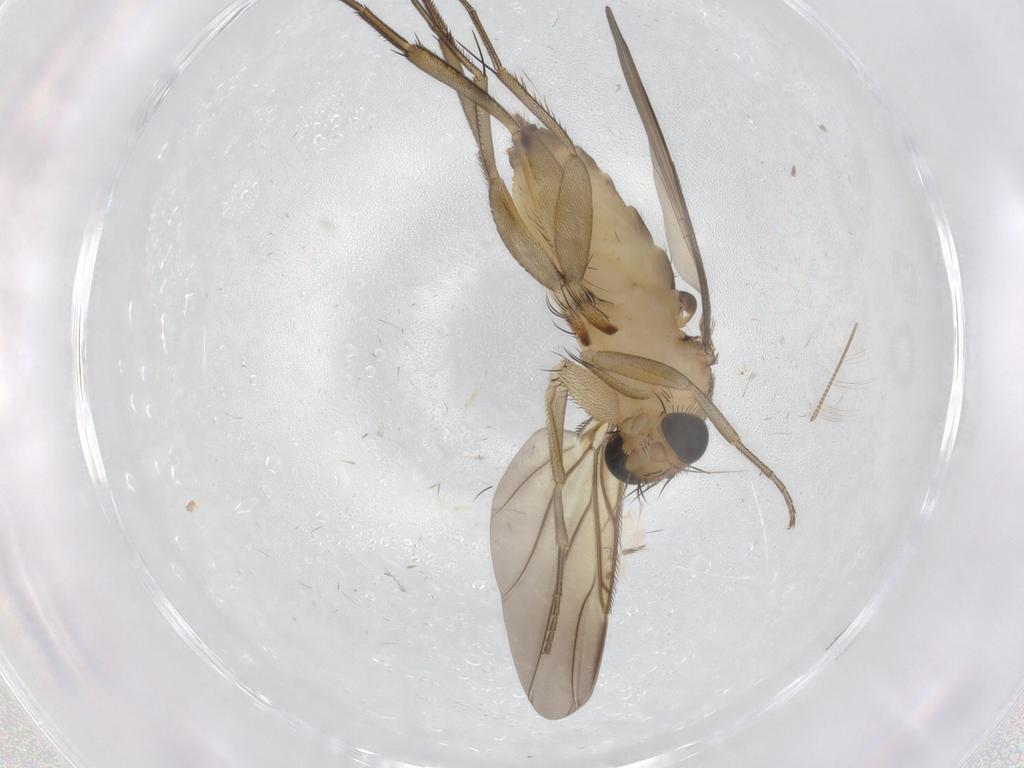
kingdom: Animalia
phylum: Arthropoda
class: Insecta
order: Diptera
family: Phoridae
